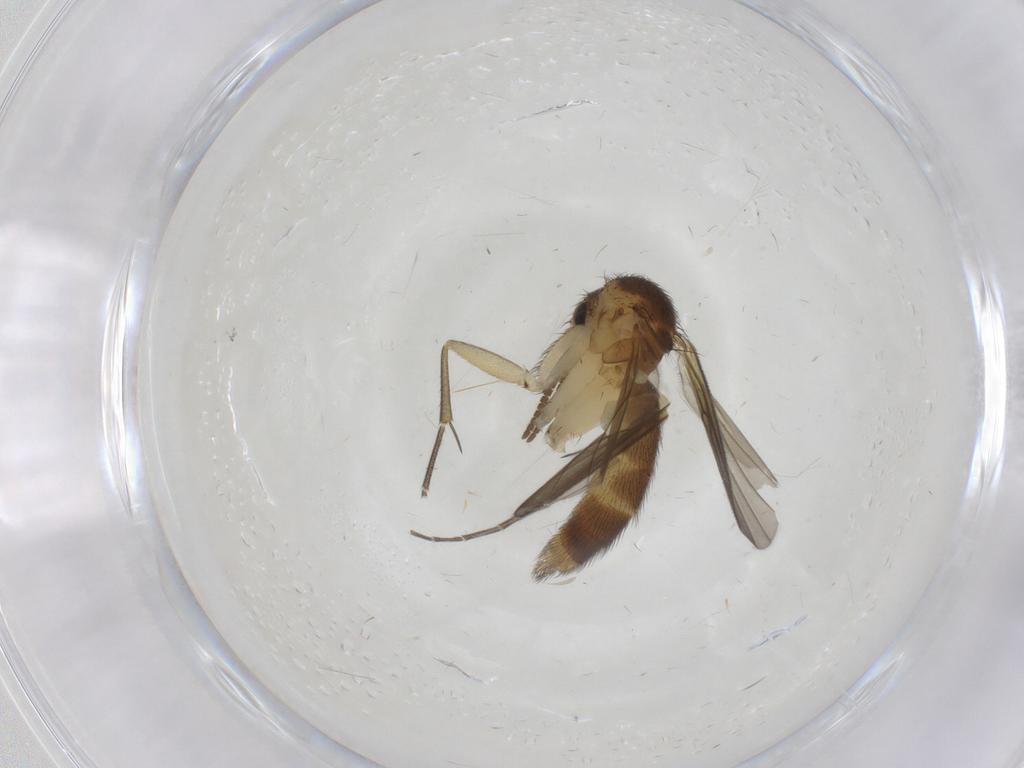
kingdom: Animalia
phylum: Arthropoda
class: Insecta
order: Diptera
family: Mycetophilidae
